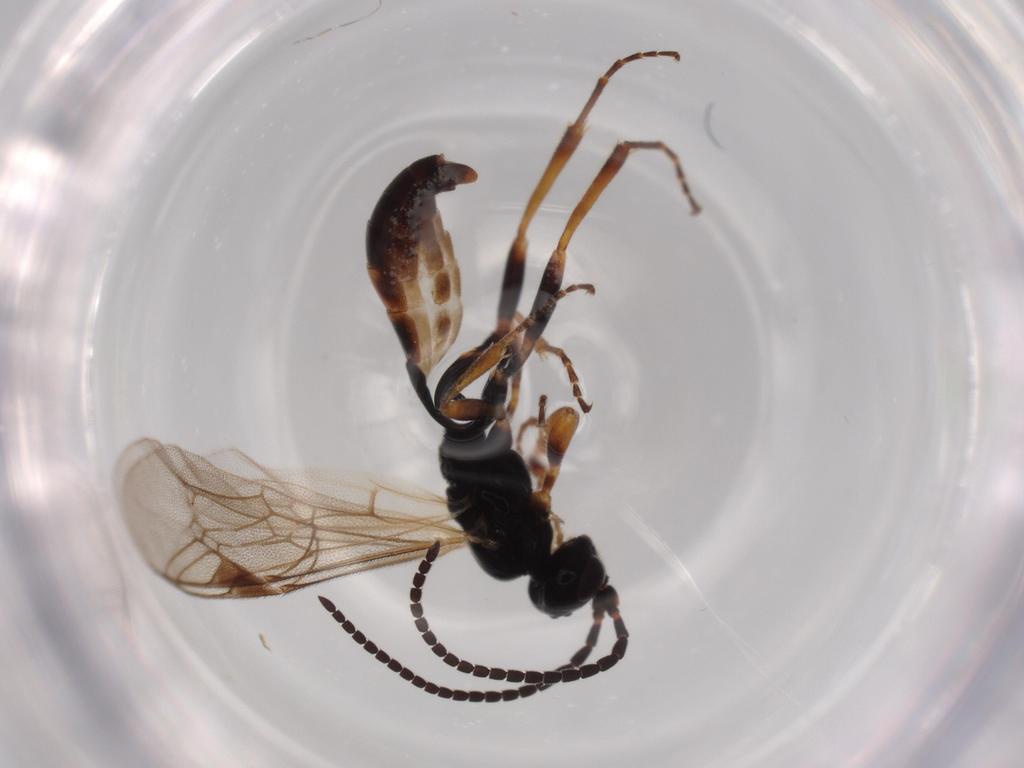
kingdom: Animalia
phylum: Arthropoda
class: Insecta
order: Hymenoptera
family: Ichneumonidae
